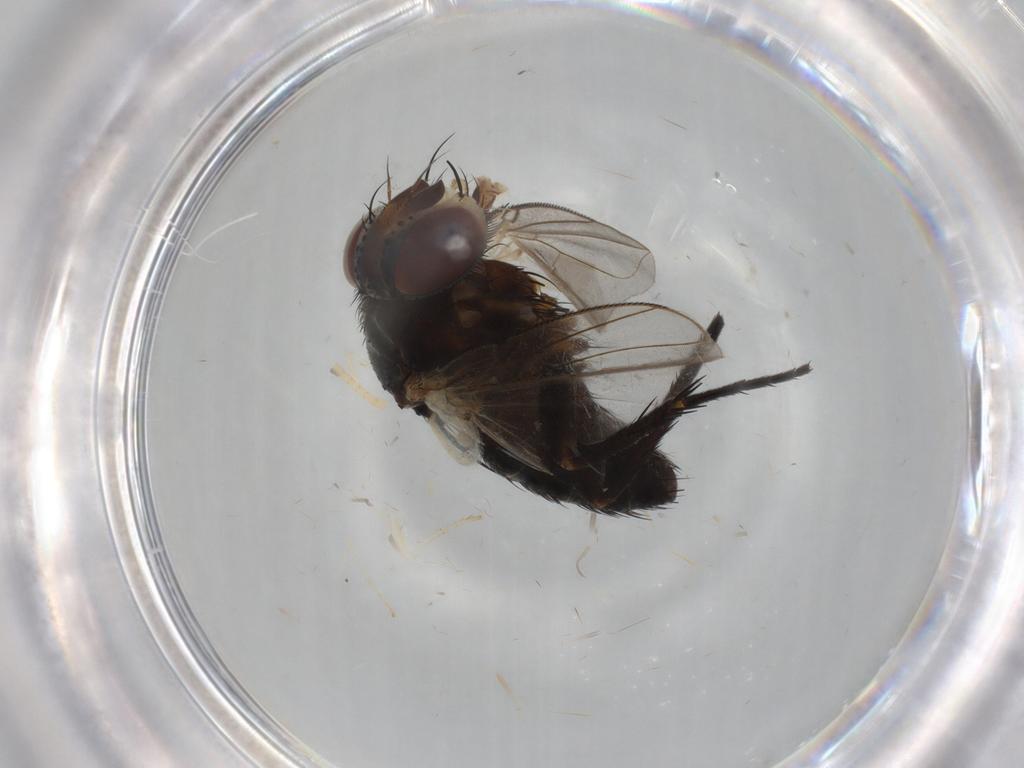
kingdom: Animalia
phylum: Arthropoda
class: Insecta
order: Diptera
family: Tachinidae
